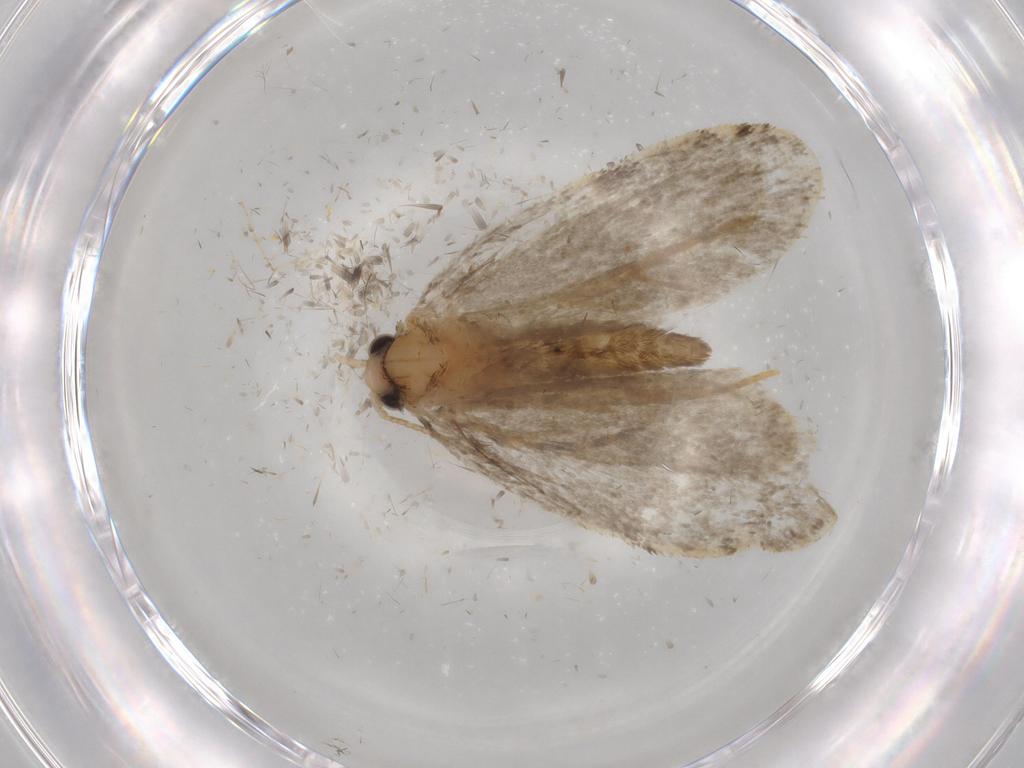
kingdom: Animalia
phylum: Arthropoda
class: Insecta
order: Lepidoptera
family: Psychidae
